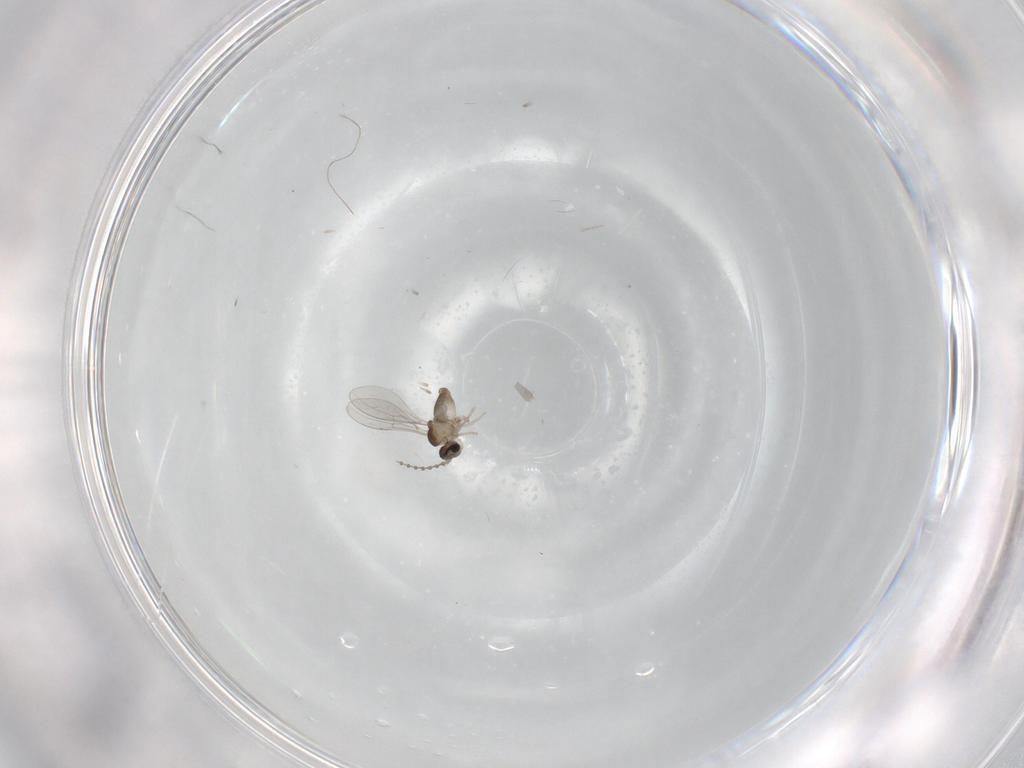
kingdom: Animalia
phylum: Arthropoda
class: Insecta
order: Diptera
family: Cecidomyiidae
